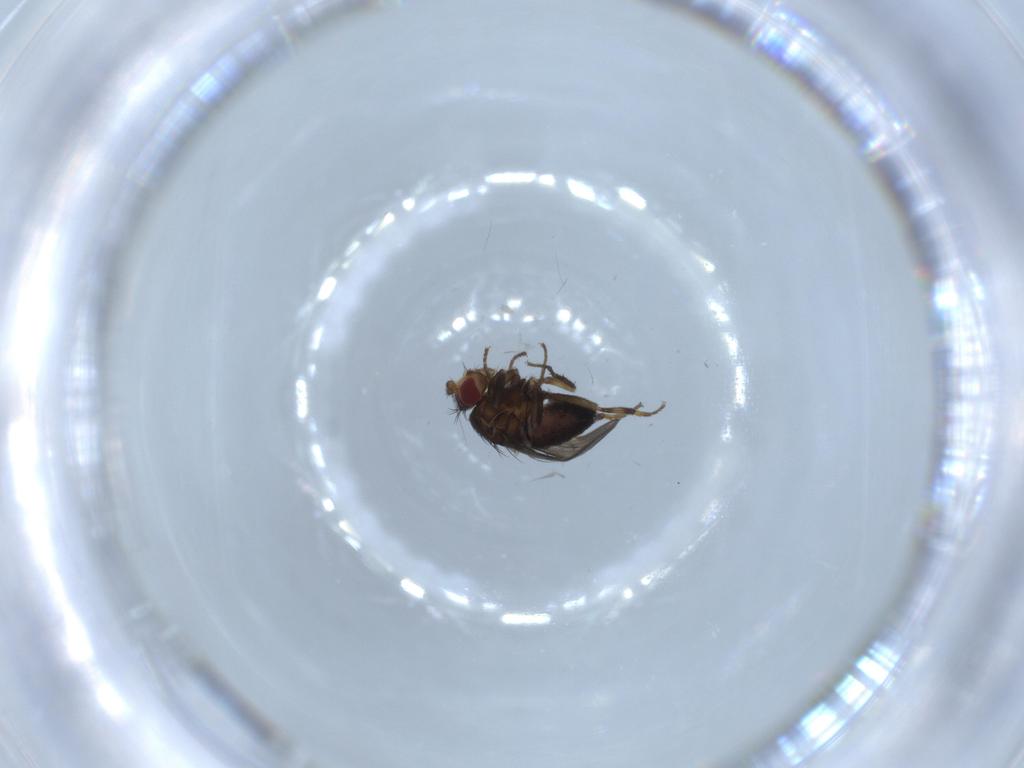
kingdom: Animalia
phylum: Arthropoda
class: Insecta
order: Diptera
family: Sphaeroceridae
